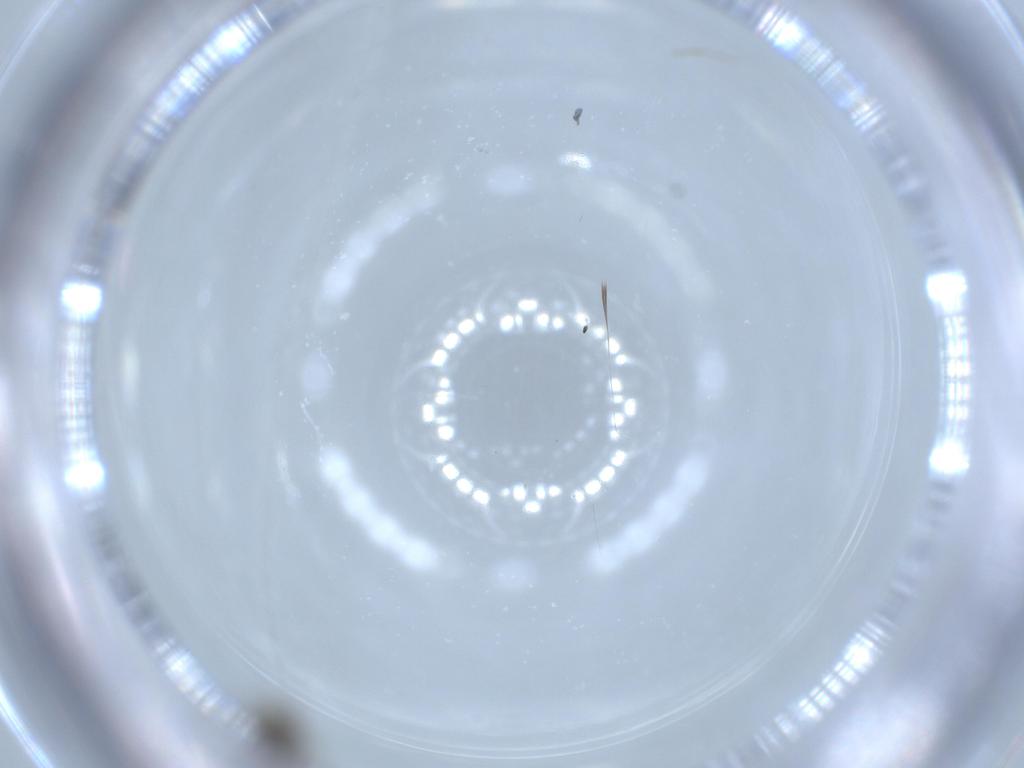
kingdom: Animalia
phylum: Arthropoda
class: Insecta
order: Diptera
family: Cecidomyiidae
